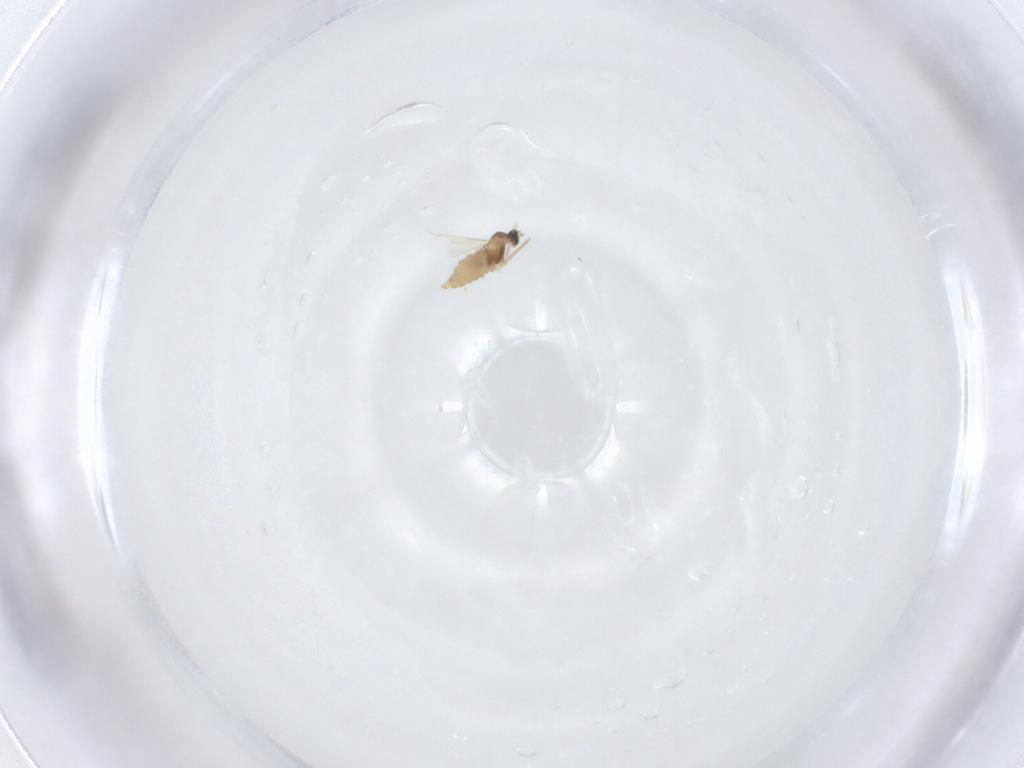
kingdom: Animalia
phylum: Arthropoda
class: Insecta
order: Diptera
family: Cecidomyiidae
